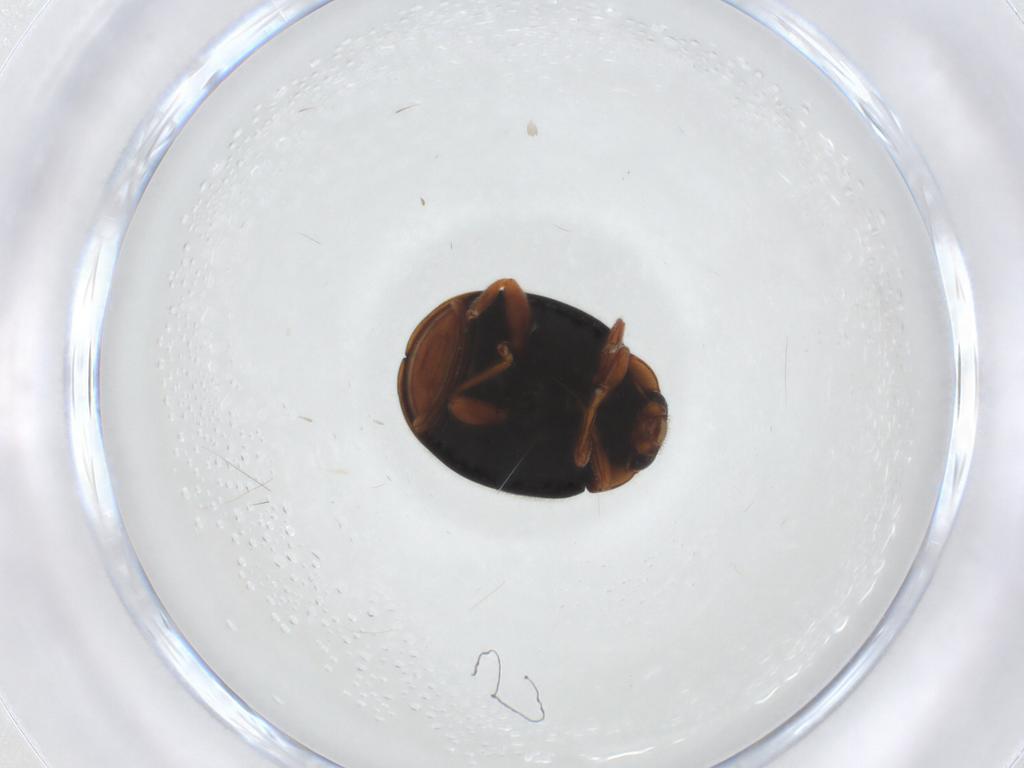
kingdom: Animalia
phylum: Arthropoda
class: Insecta
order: Coleoptera
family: Coccinellidae
